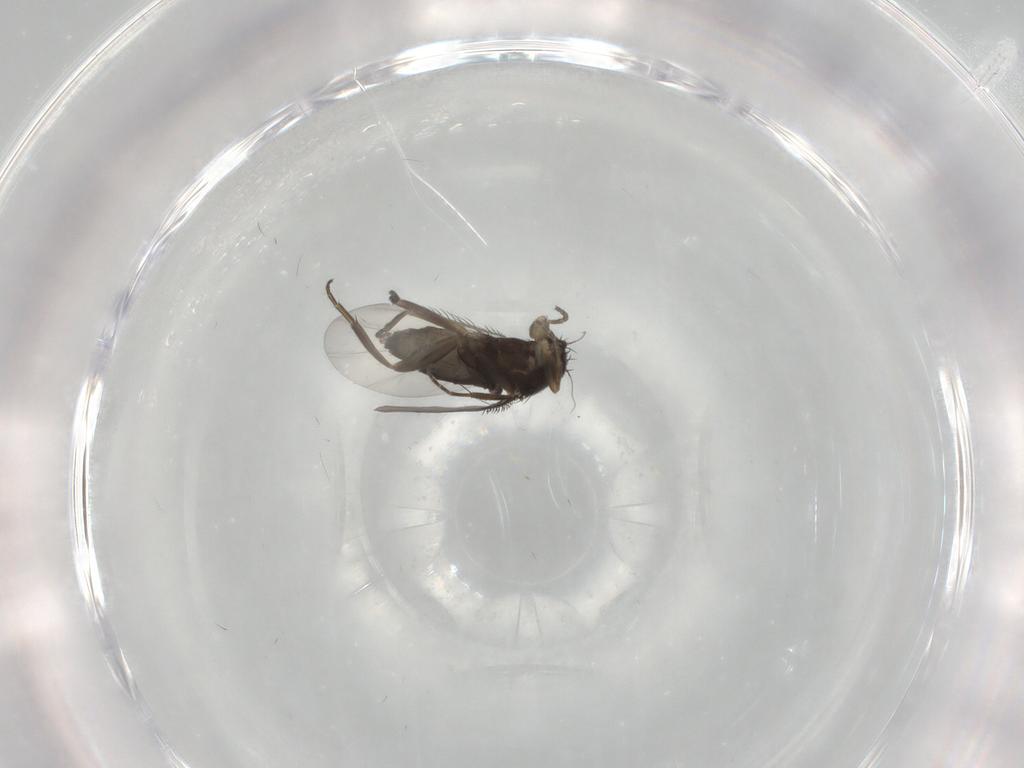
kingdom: Animalia
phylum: Arthropoda
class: Insecta
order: Diptera
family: Sciaridae
